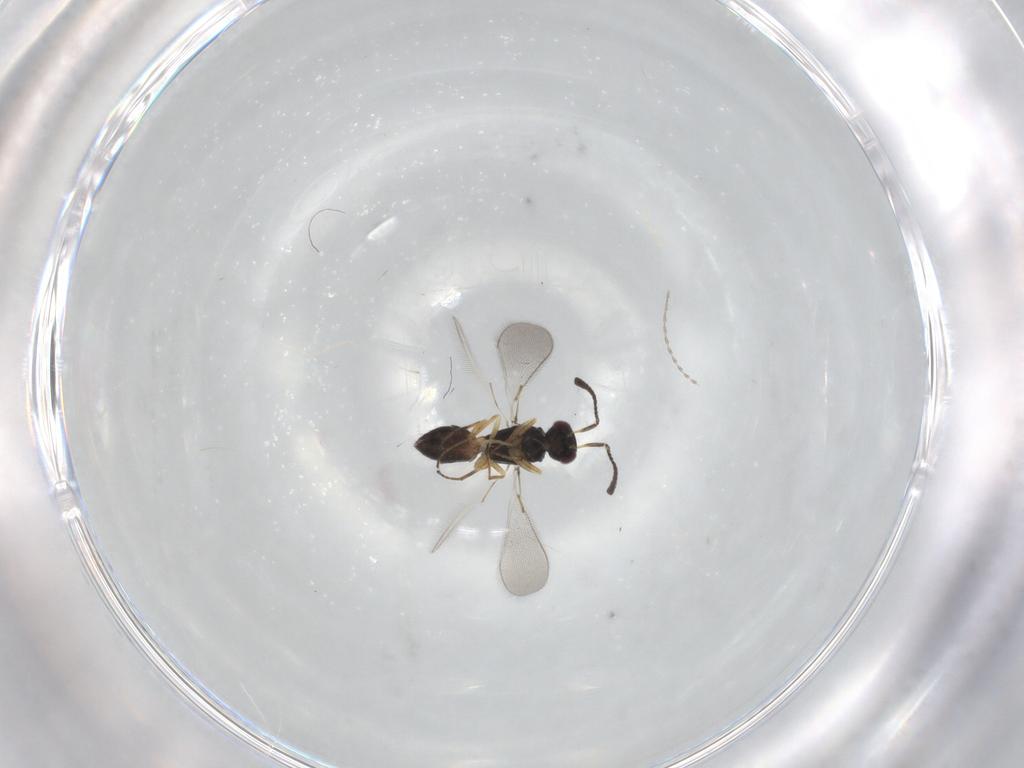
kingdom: Animalia
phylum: Arthropoda
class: Insecta
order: Hymenoptera
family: Mymaridae
